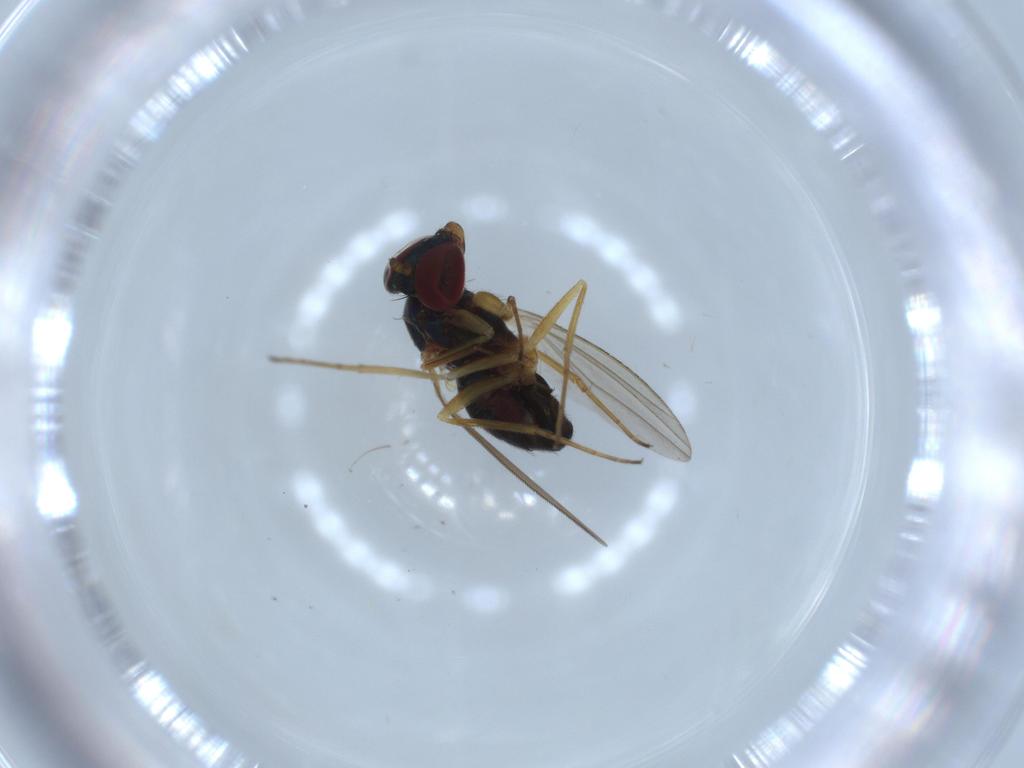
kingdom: Animalia
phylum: Arthropoda
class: Insecta
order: Diptera
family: Dolichopodidae
